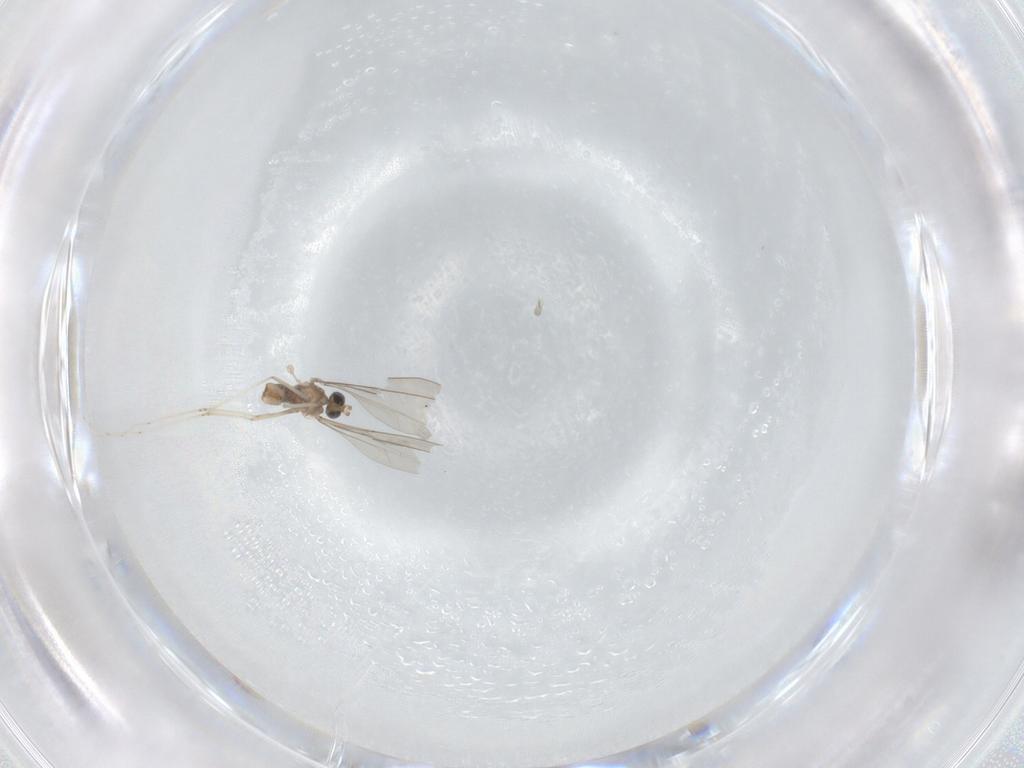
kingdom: Animalia
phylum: Arthropoda
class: Insecta
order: Diptera
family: Cecidomyiidae
